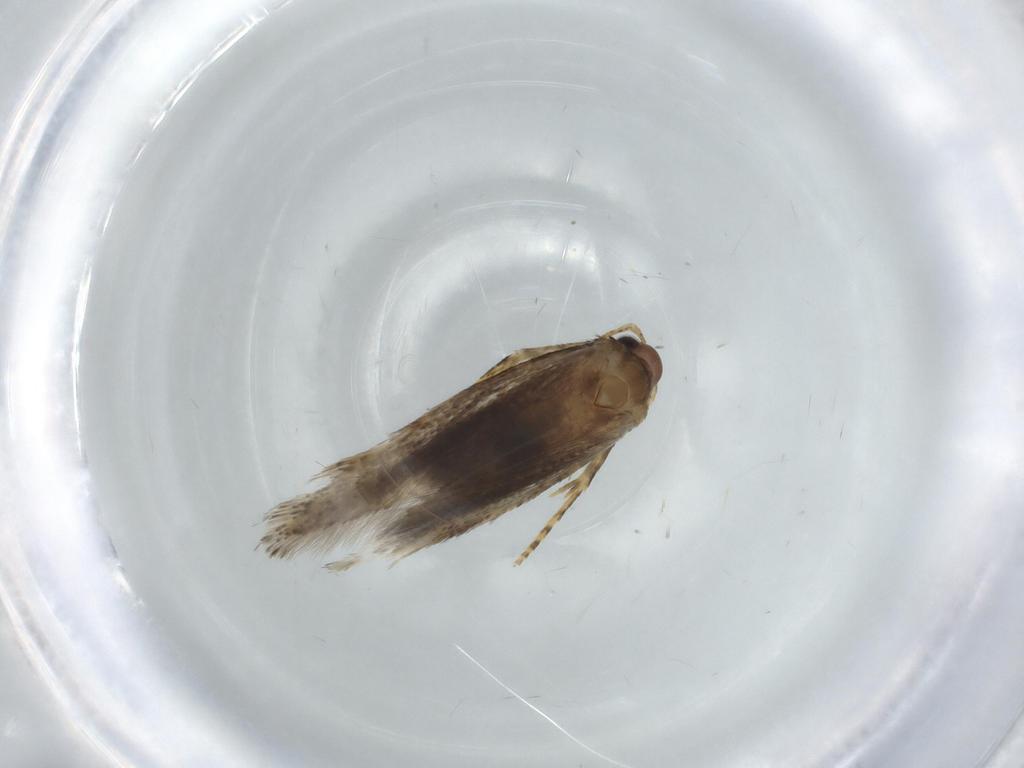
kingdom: Animalia
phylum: Arthropoda
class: Insecta
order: Lepidoptera
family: Elachistidae
